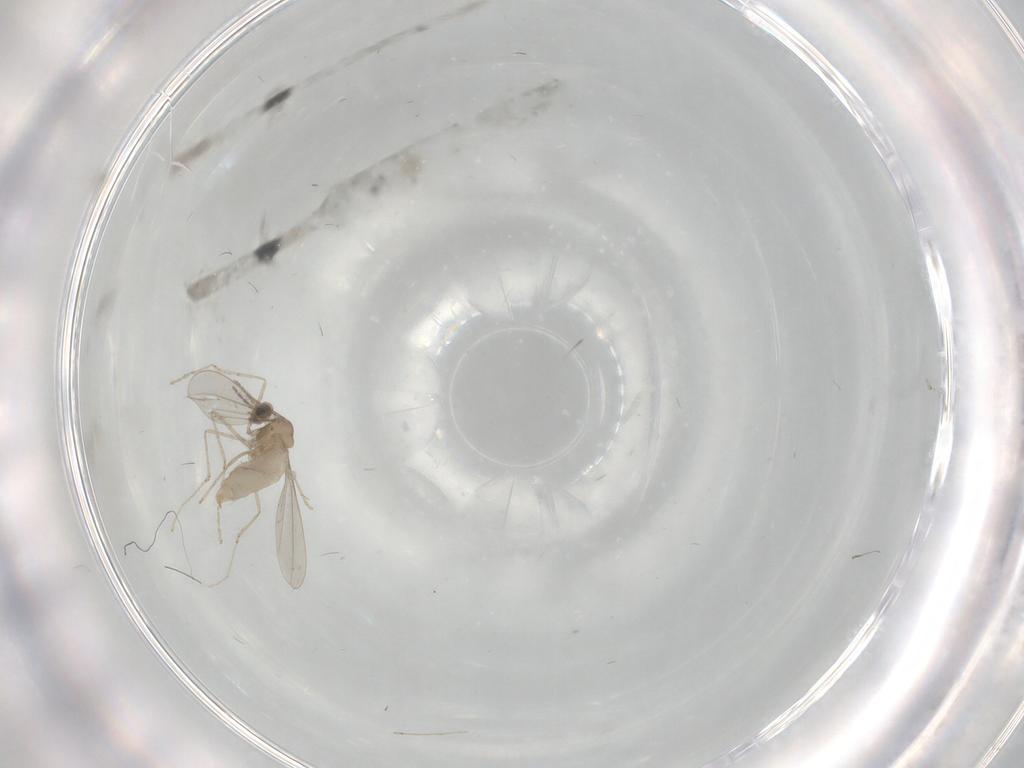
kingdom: Animalia
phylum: Arthropoda
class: Insecta
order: Diptera
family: Cecidomyiidae
